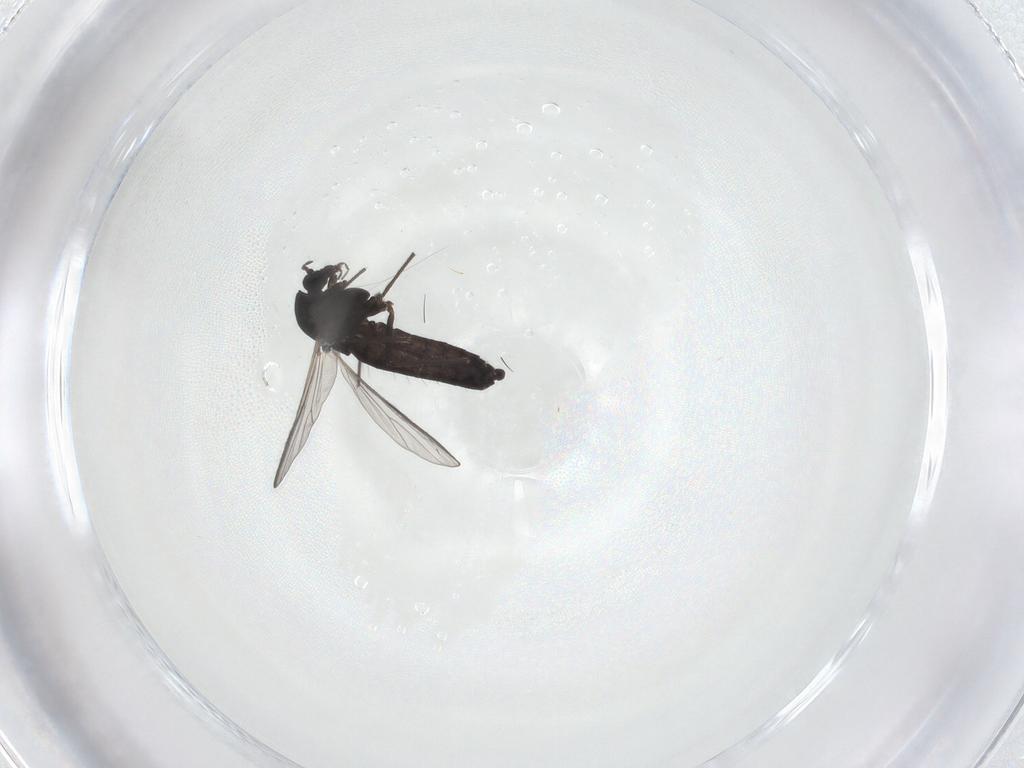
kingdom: Animalia
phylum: Arthropoda
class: Insecta
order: Diptera
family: Chironomidae
